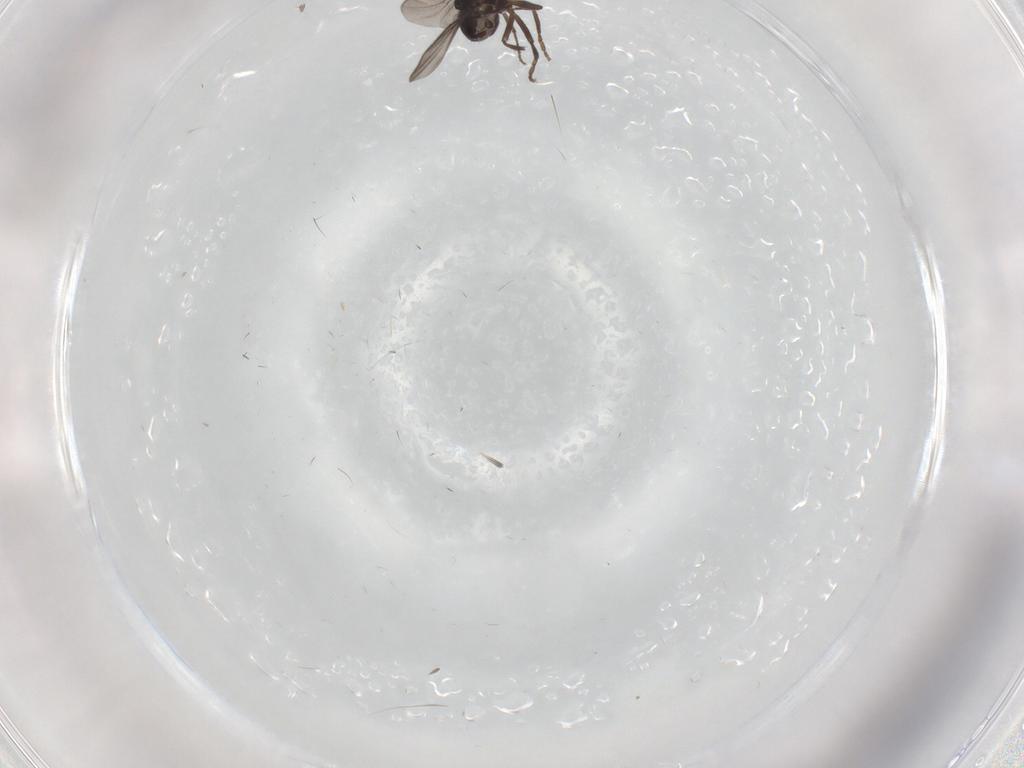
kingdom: Animalia
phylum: Arthropoda
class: Insecta
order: Diptera
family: Sphaeroceridae
